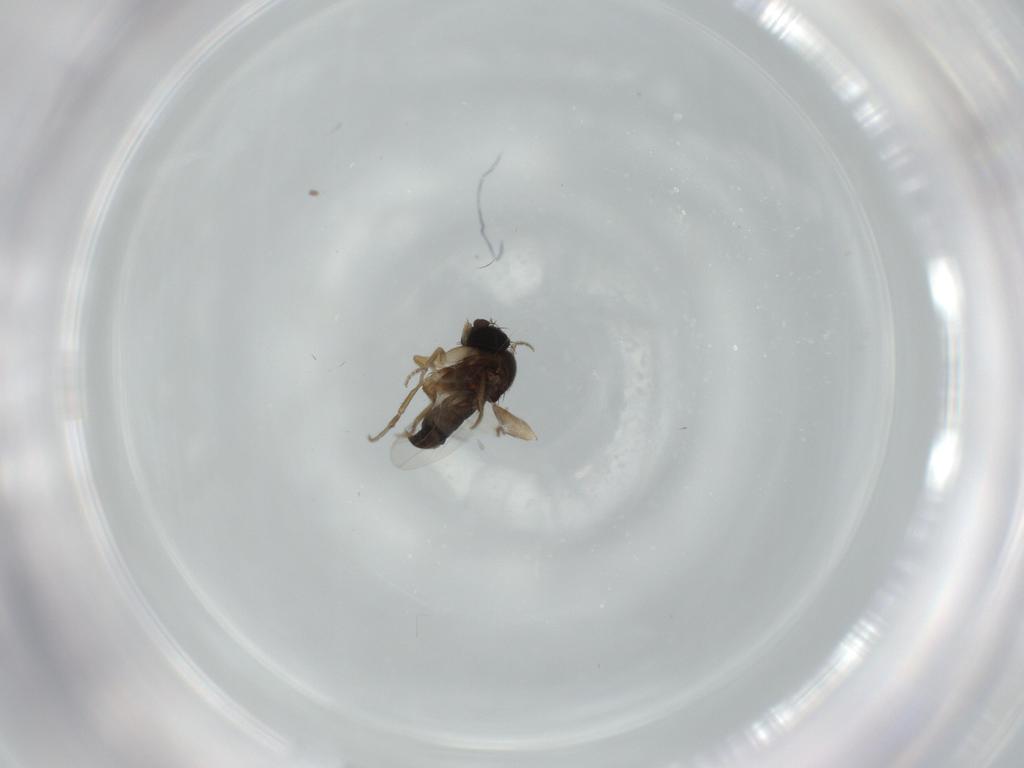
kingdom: Animalia
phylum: Arthropoda
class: Insecta
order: Diptera
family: Phoridae
